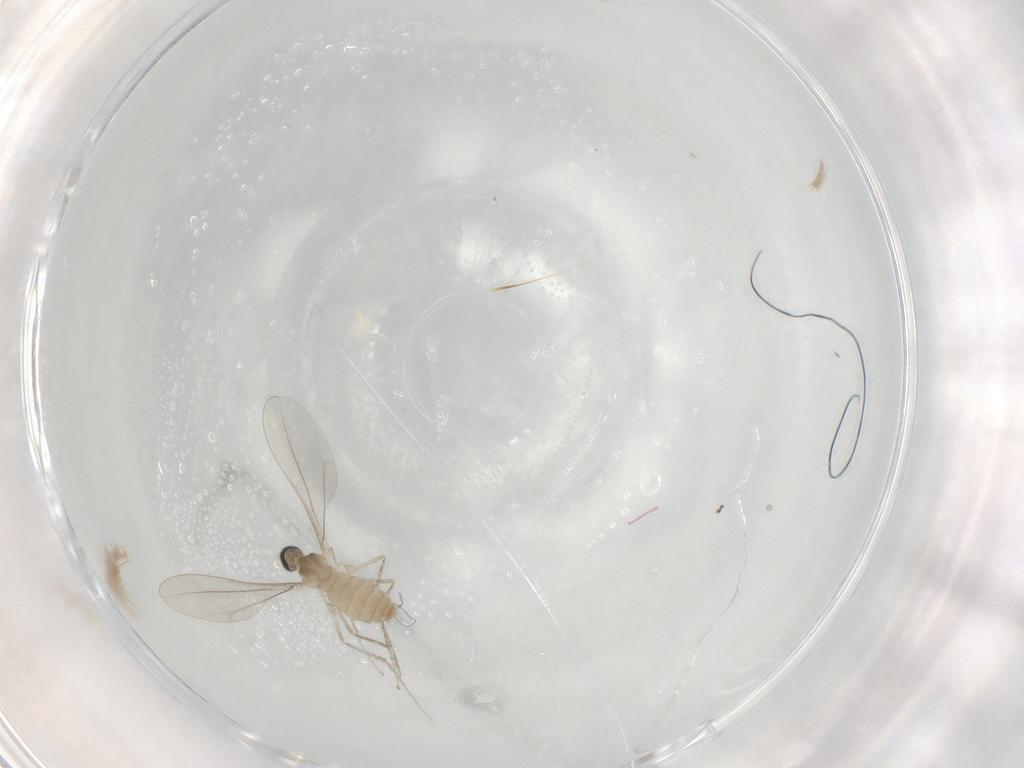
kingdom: Animalia
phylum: Arthropoda
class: Insecta
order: Diptera
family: Cecidomyiidae
